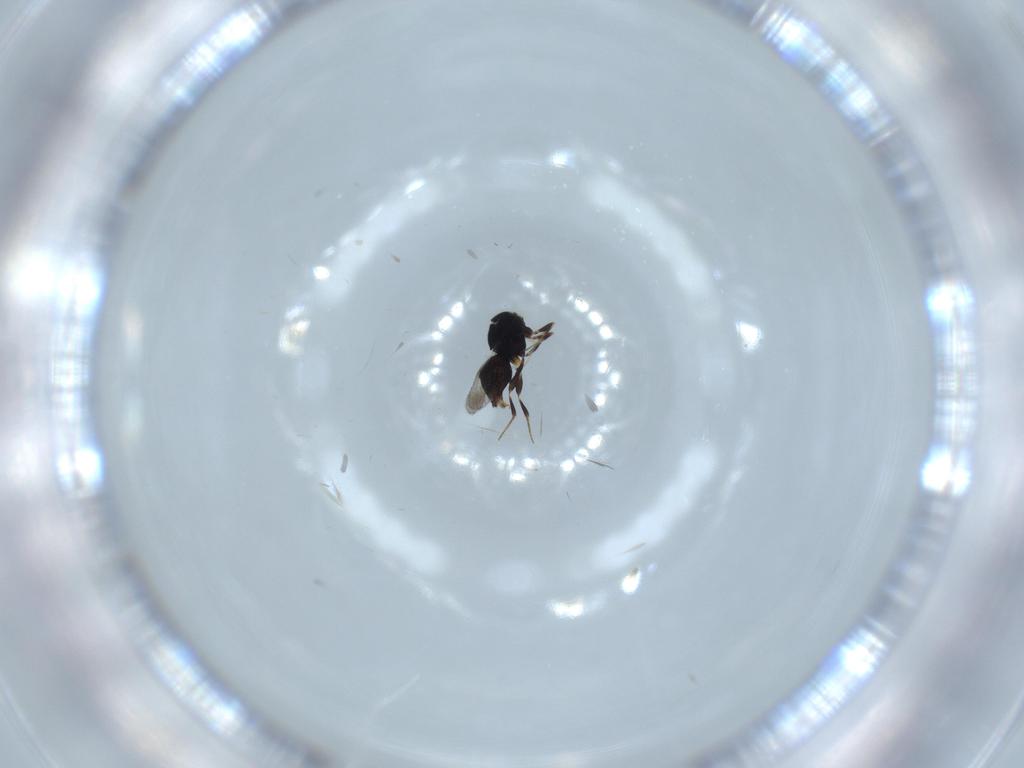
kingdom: Animalia
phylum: Arthropoda
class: Insecta
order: Hymenoptera
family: Ceraphronidae
